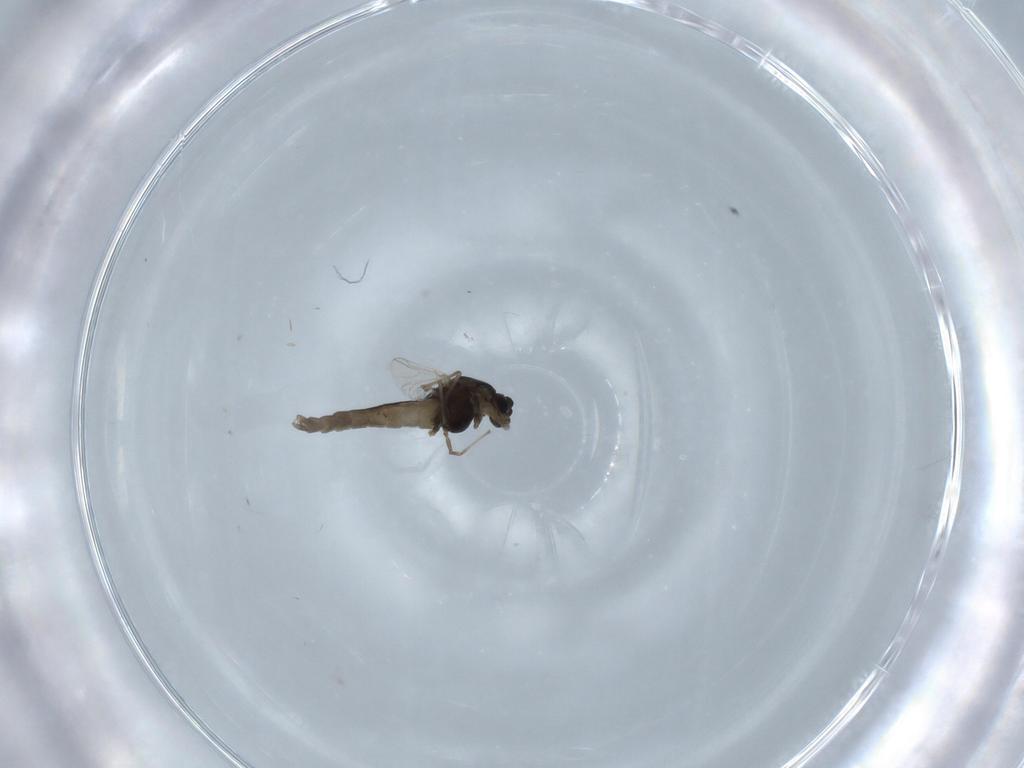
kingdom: Animalia
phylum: Arthropoda
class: Insecta
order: Diptera
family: Chironomidae
